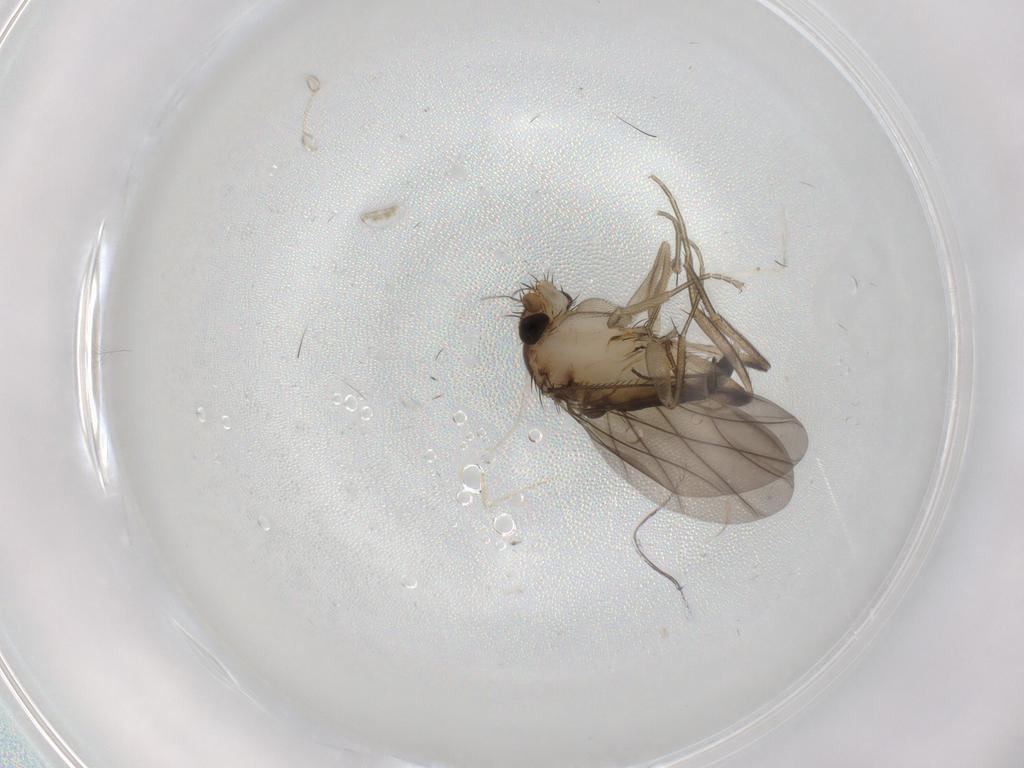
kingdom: Animalia
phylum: Arthropoda
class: Insecta
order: Diptera
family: Phoridae
